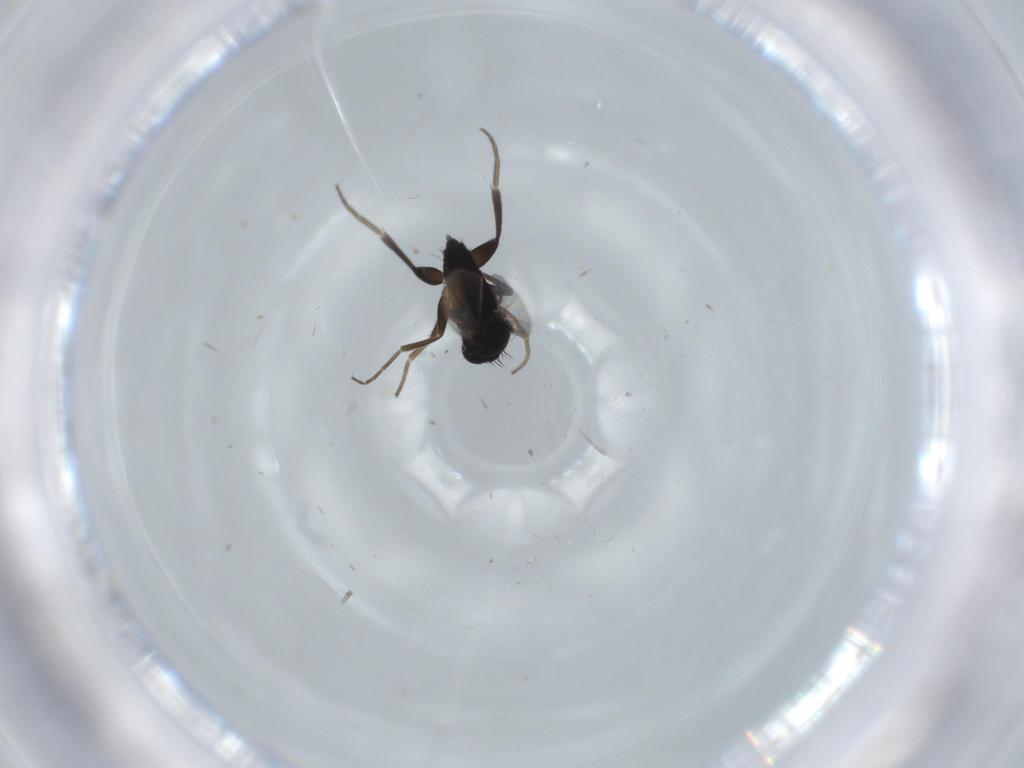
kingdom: Animalia
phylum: Arthropoda
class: Insecta
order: Diptera
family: Phoridae
